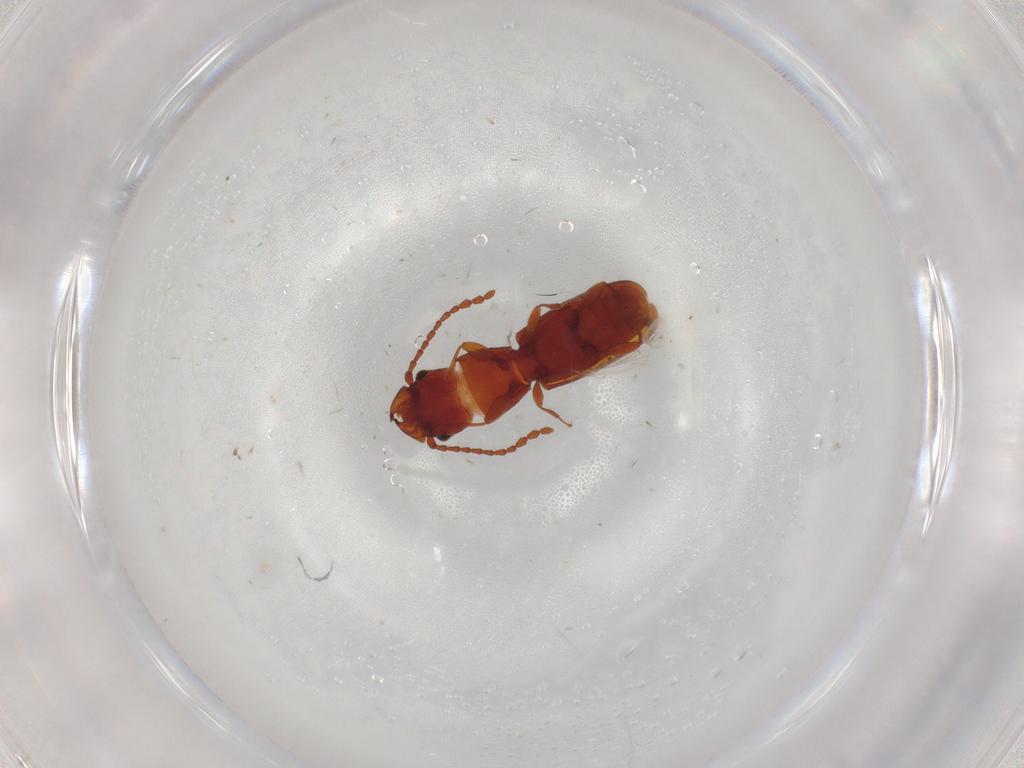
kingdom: Animalia
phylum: Arthropoda
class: Insecta
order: Coleoptera
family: Laemophloeidae
